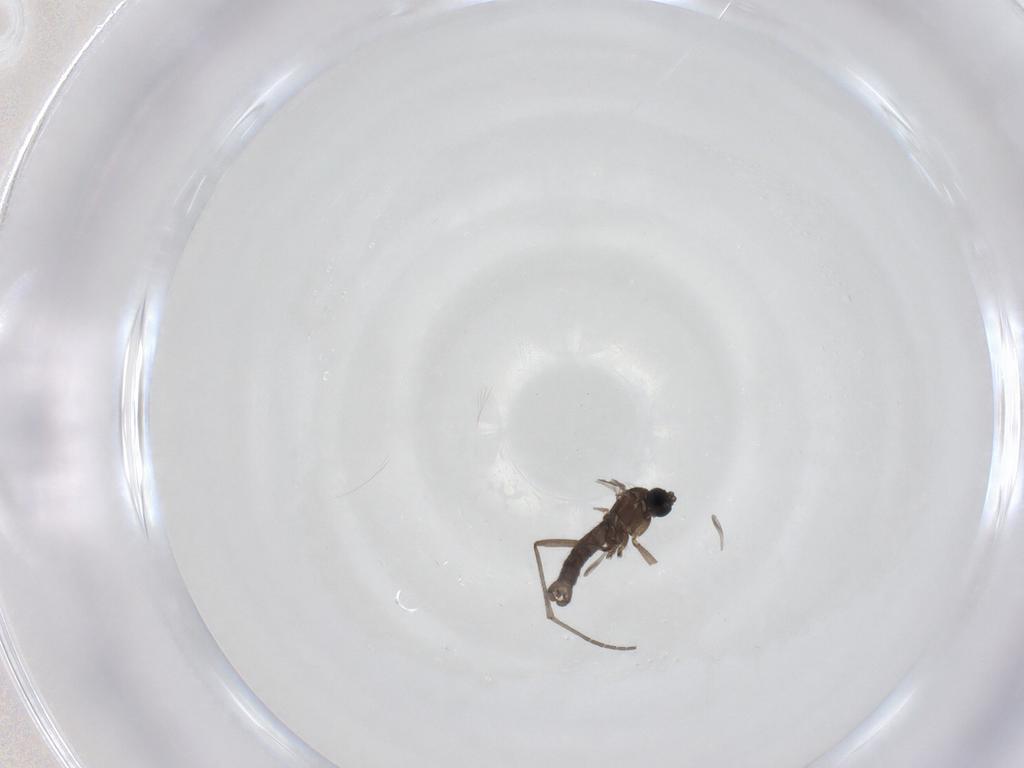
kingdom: Animalia
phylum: Arthropoda
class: Insecta
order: Diptera
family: Sciaridae
